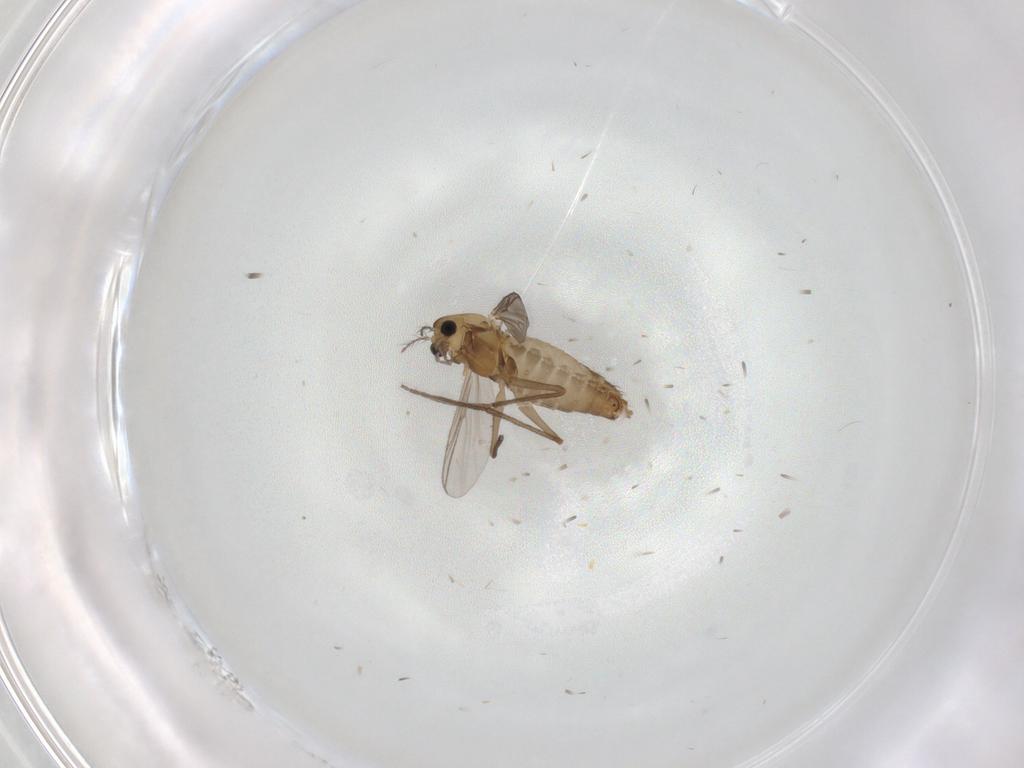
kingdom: Animalia
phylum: Arthropoda
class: Insecta
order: Diptera
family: Chironomidae
